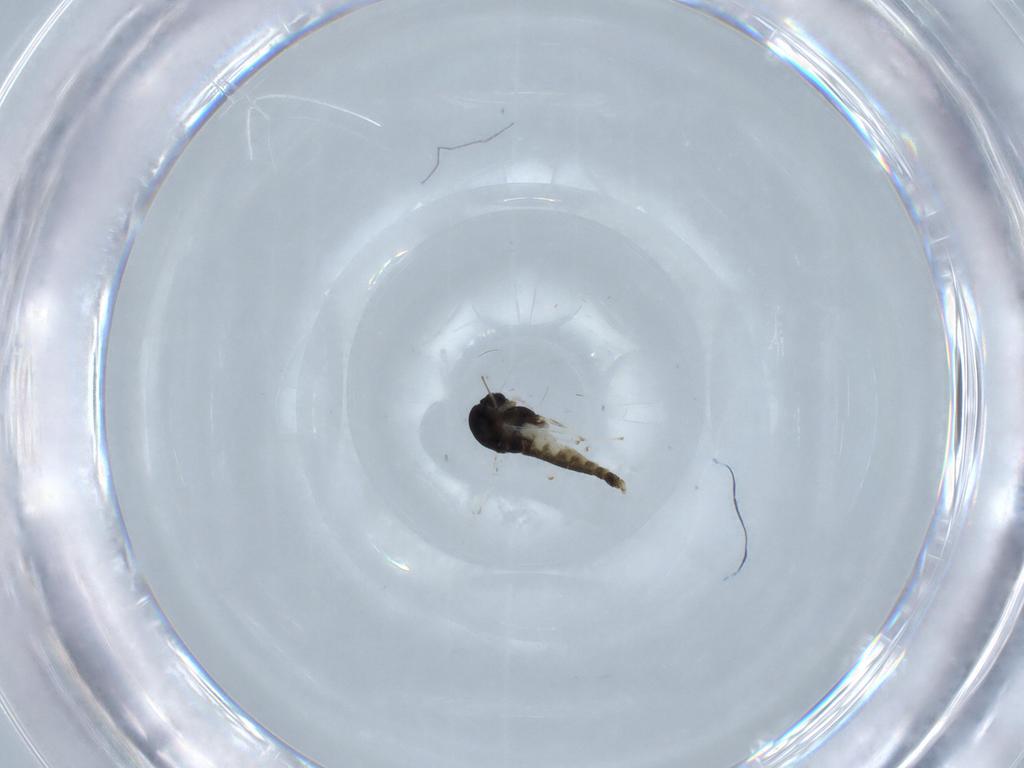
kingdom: Animalia
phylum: Arthropoda
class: Insecta
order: Diptera
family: Chironomidae
